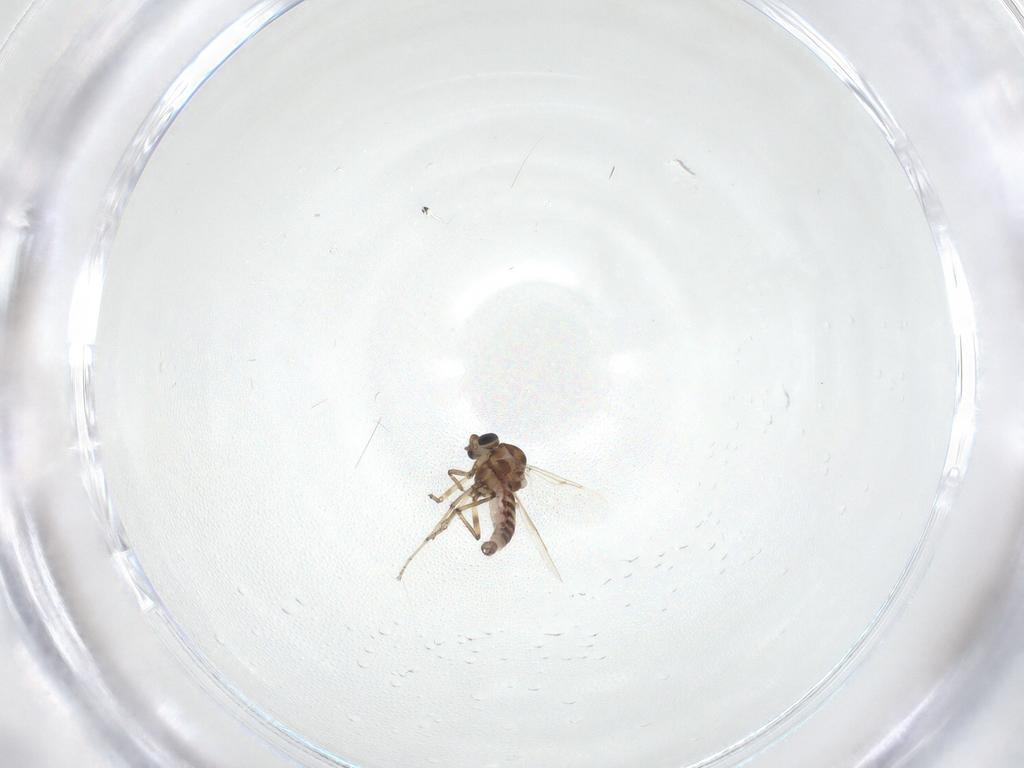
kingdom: Animalia
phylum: Arthropoda
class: Insecta
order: Diptera
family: Ceratopogonidae
